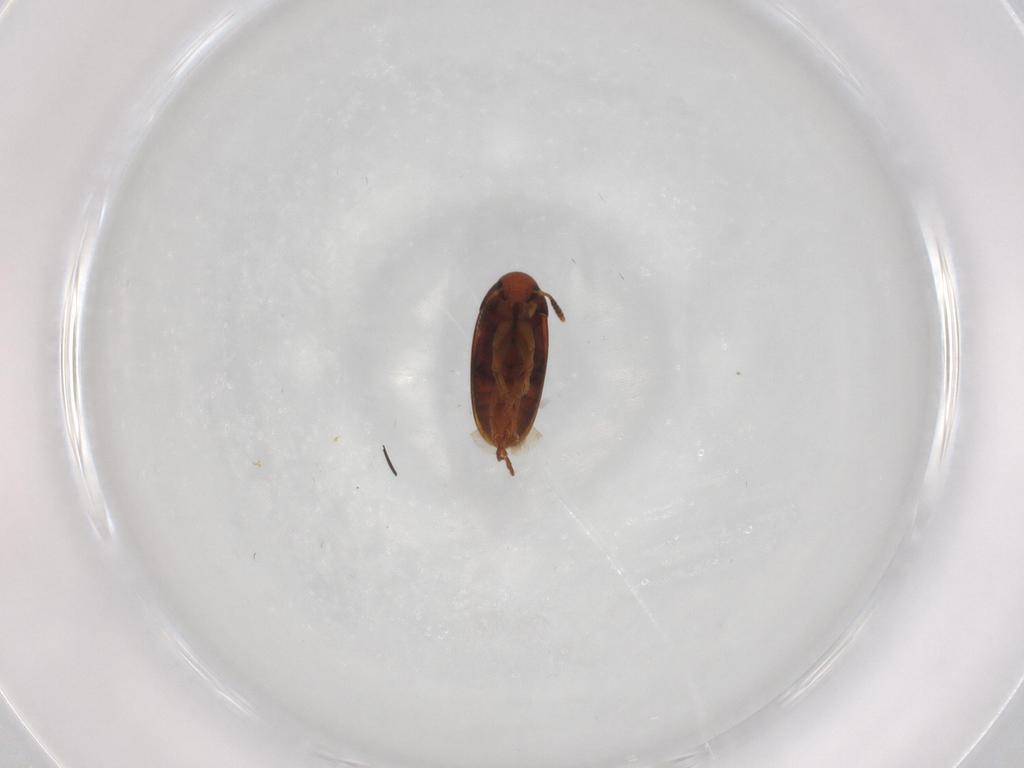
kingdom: Animalia
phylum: Arthropoda
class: Insecta
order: Coleoptera
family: Scraptiidae
